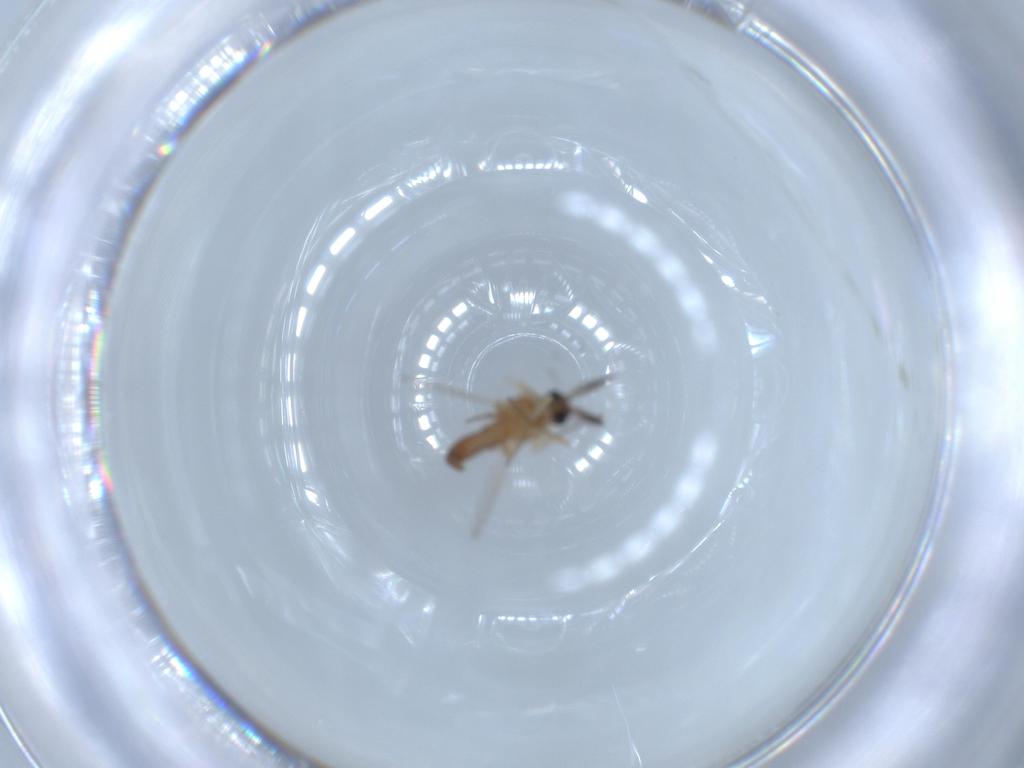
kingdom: Animalia
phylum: Arthropoda
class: Insecta
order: Diptera
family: Ceratopogonidae
